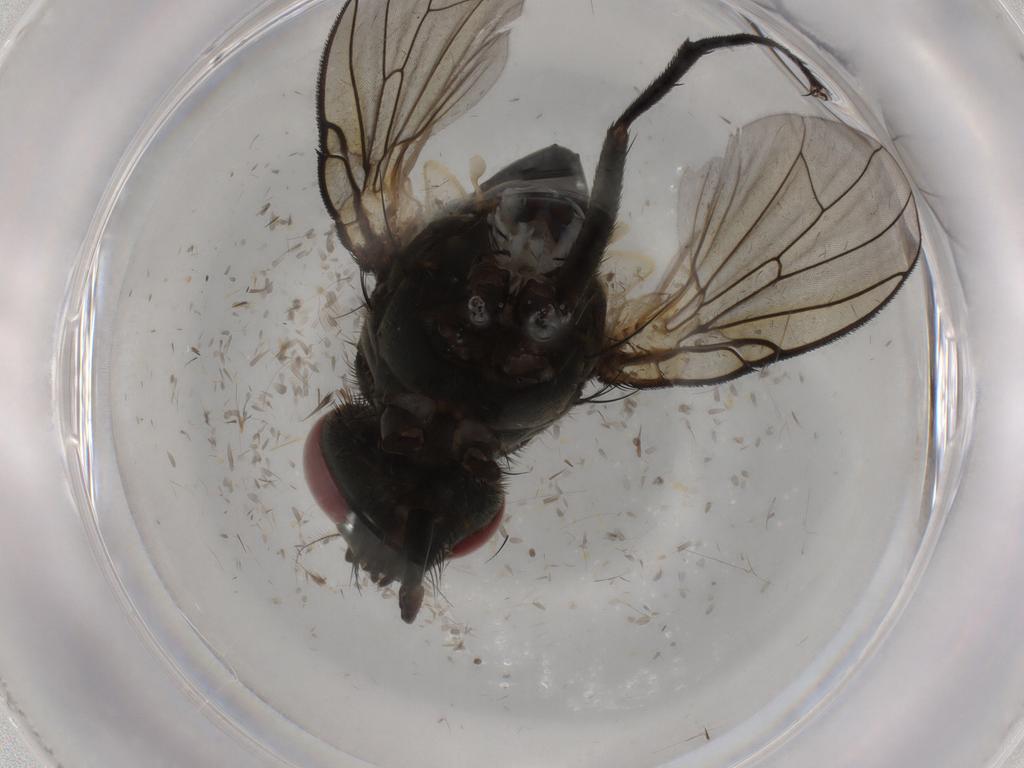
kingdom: Animalia
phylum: Arthropoda
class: Insecta
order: Diptera
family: Muscidae
